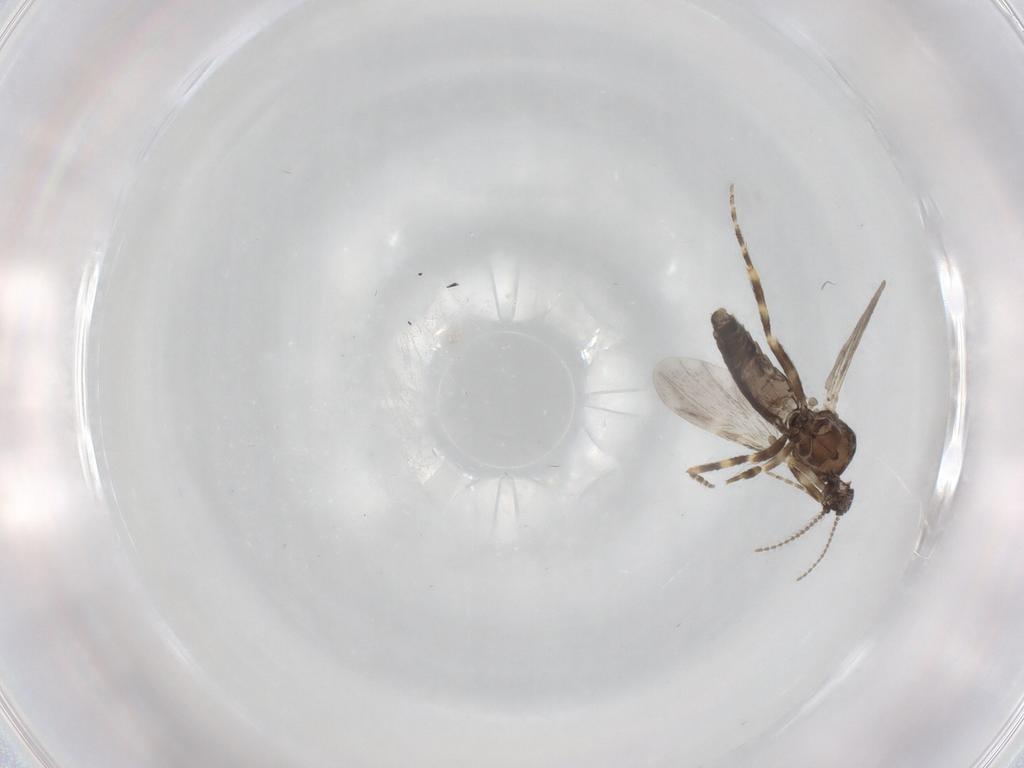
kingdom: Animalia
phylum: Arthropoda
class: Insecta
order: Diptera
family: Ceratopogonidae
